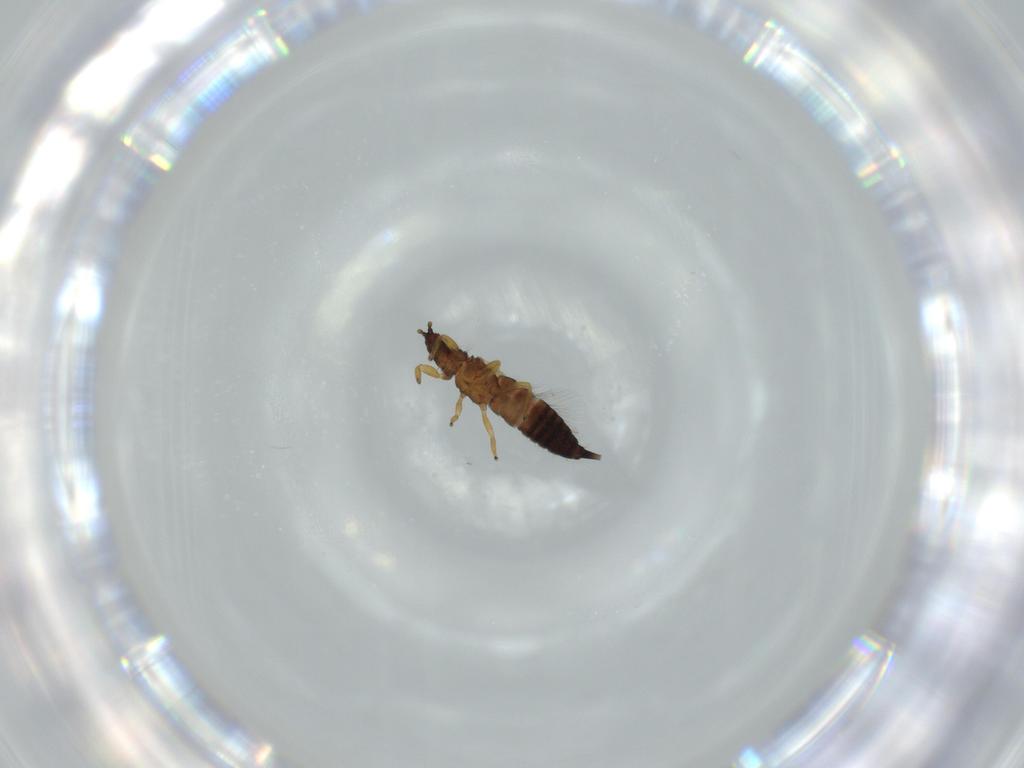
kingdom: Animalia
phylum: Arthropoda
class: Insecta
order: Thysanoptera
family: Phlaeothripidae
